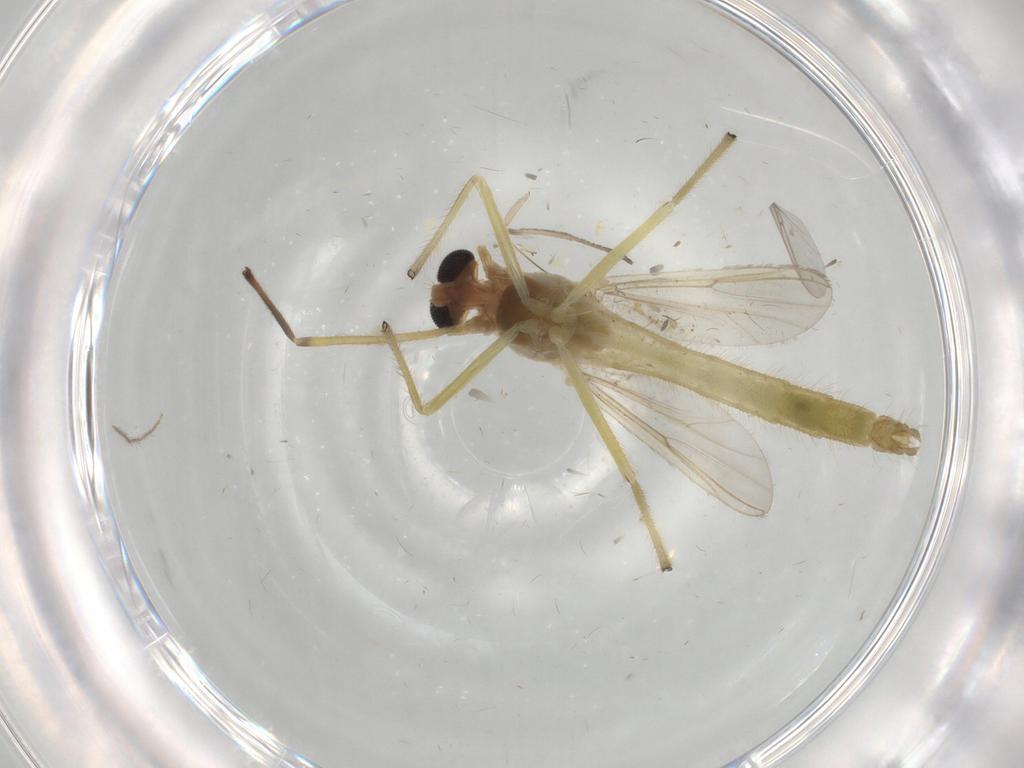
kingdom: Animalia
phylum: Arthropoda
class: Insecta
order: Diptera
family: Chironomidae
